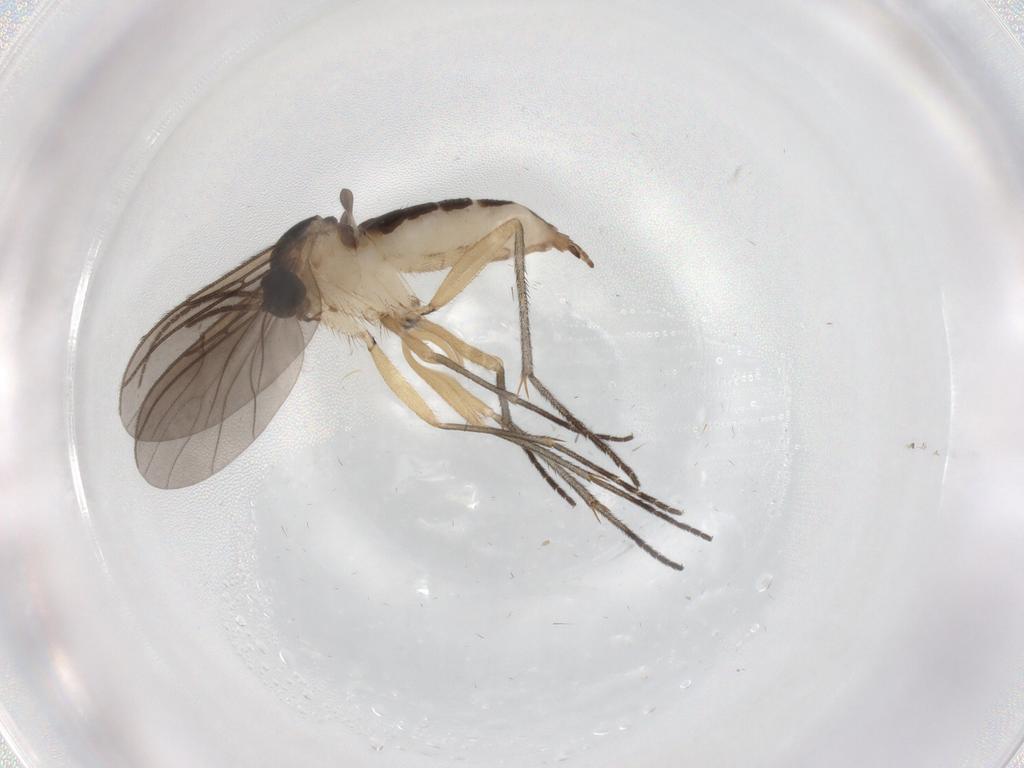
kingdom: Animalia
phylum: Arthropoda
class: Insecta
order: Diptera
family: Sciaridae
